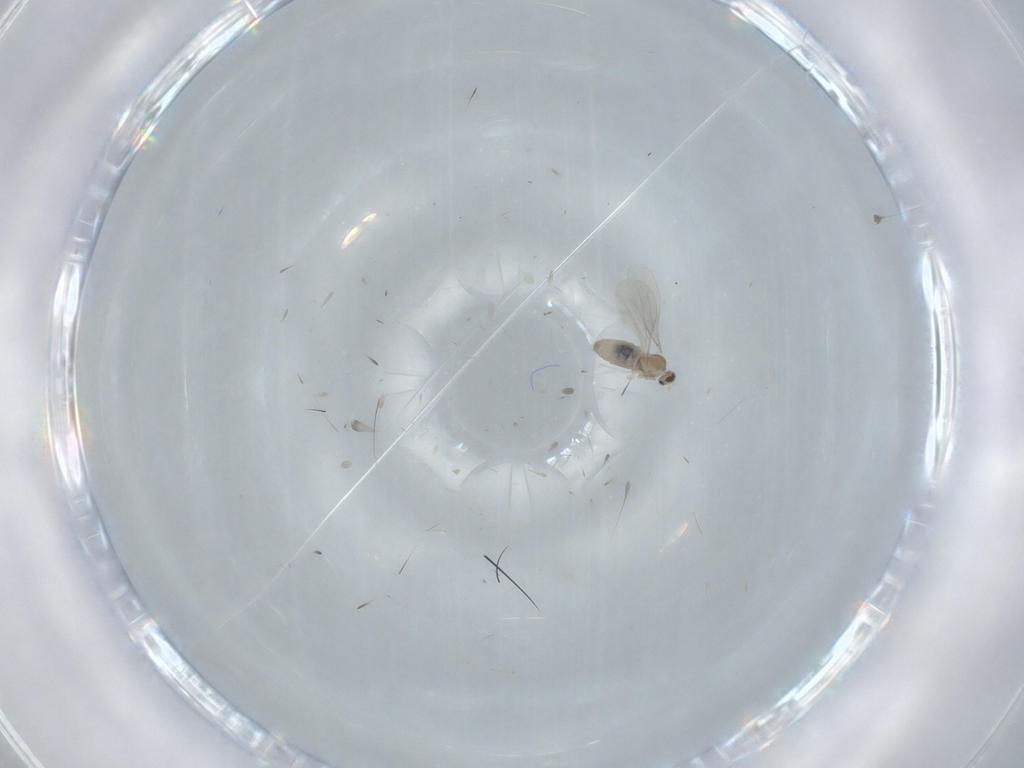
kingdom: Animalia
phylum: Arthropoda
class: Insecta
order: Diptera
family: Cecidomyiidae
